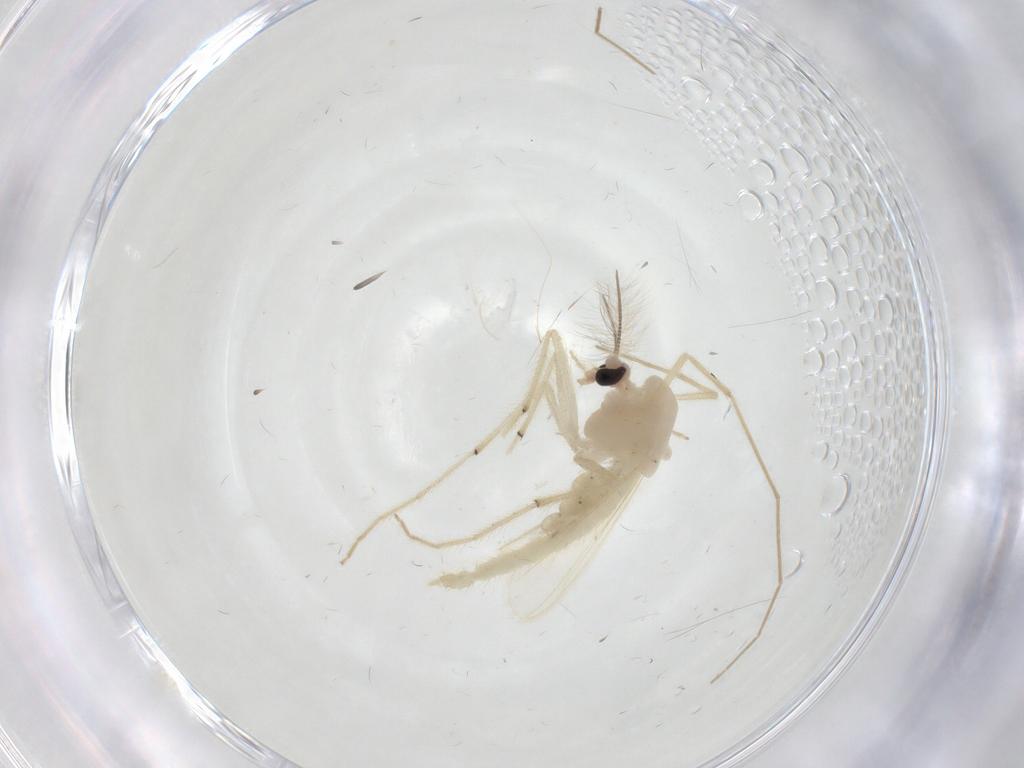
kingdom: Animalia
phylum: Arthropoda
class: Insecta
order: Diptera
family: Chironomidae
